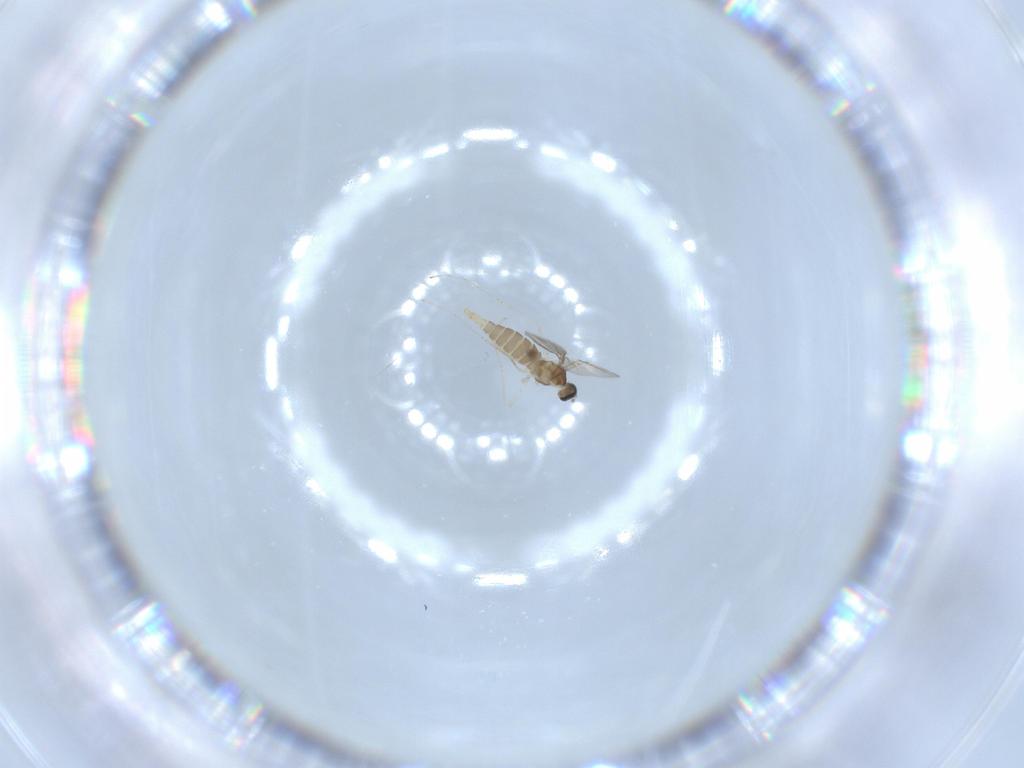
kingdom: Animalia
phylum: Arthropoda
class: Insecta
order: Diptera
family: Cecidomyiidae
